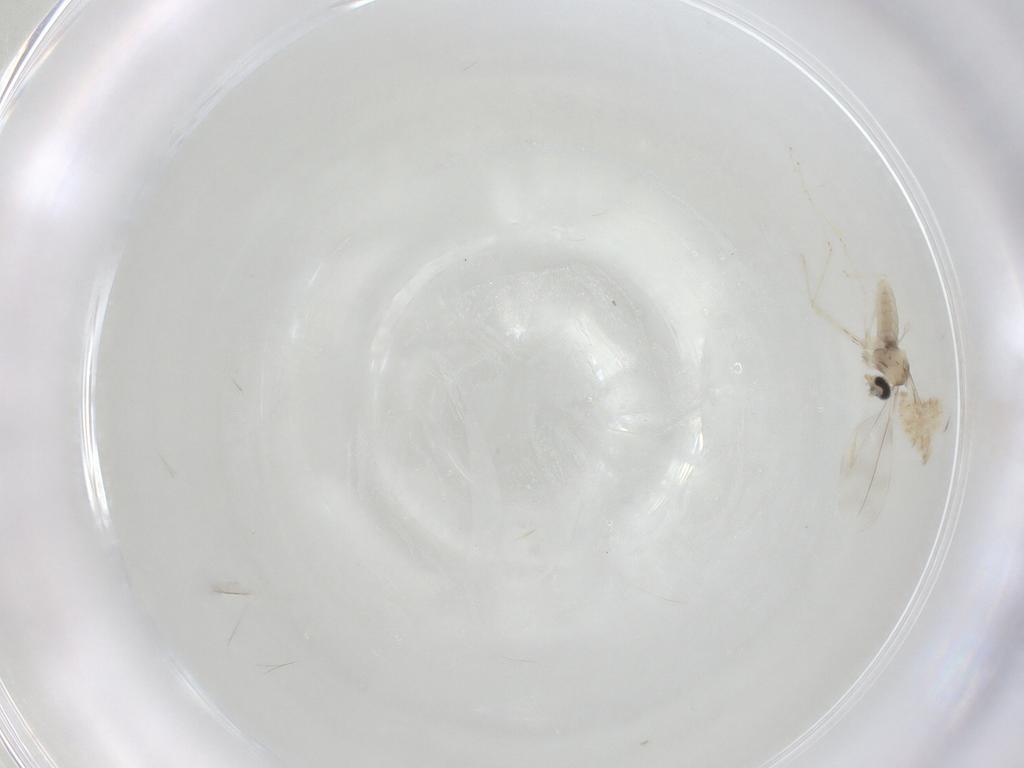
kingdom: Animalia
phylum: Arthropoda
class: Insecta
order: Diptera
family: Cecidomyiidae
